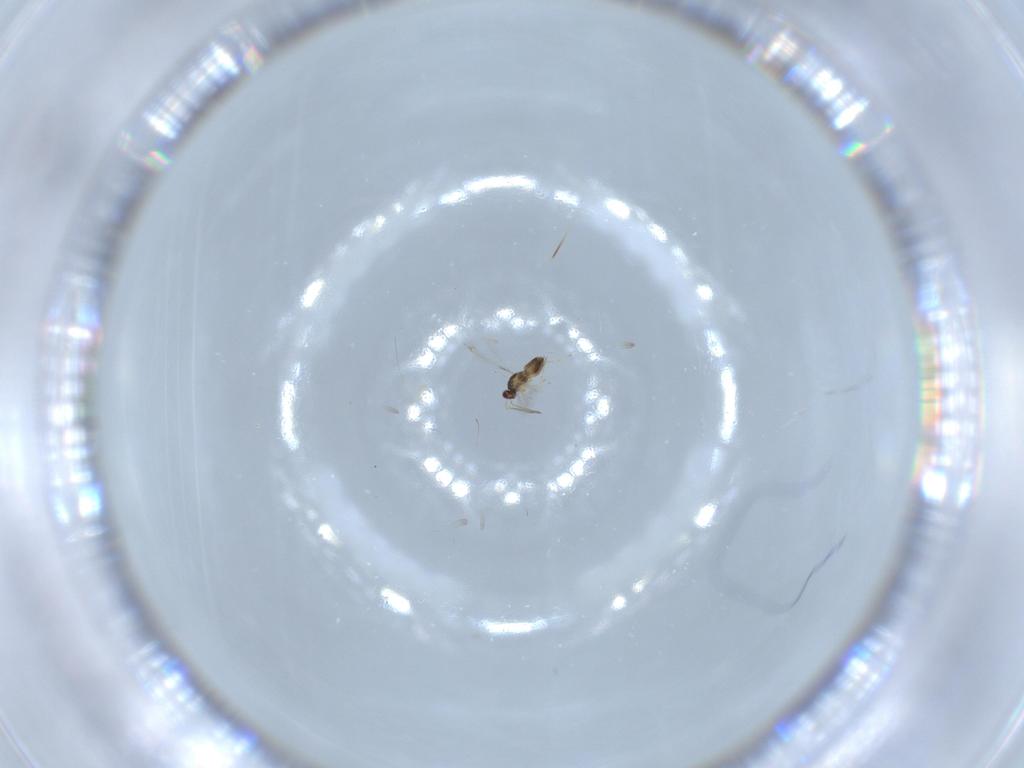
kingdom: Animalia
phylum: Arthropoda
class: Insecta
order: Hymenoptera
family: Mymaridae
